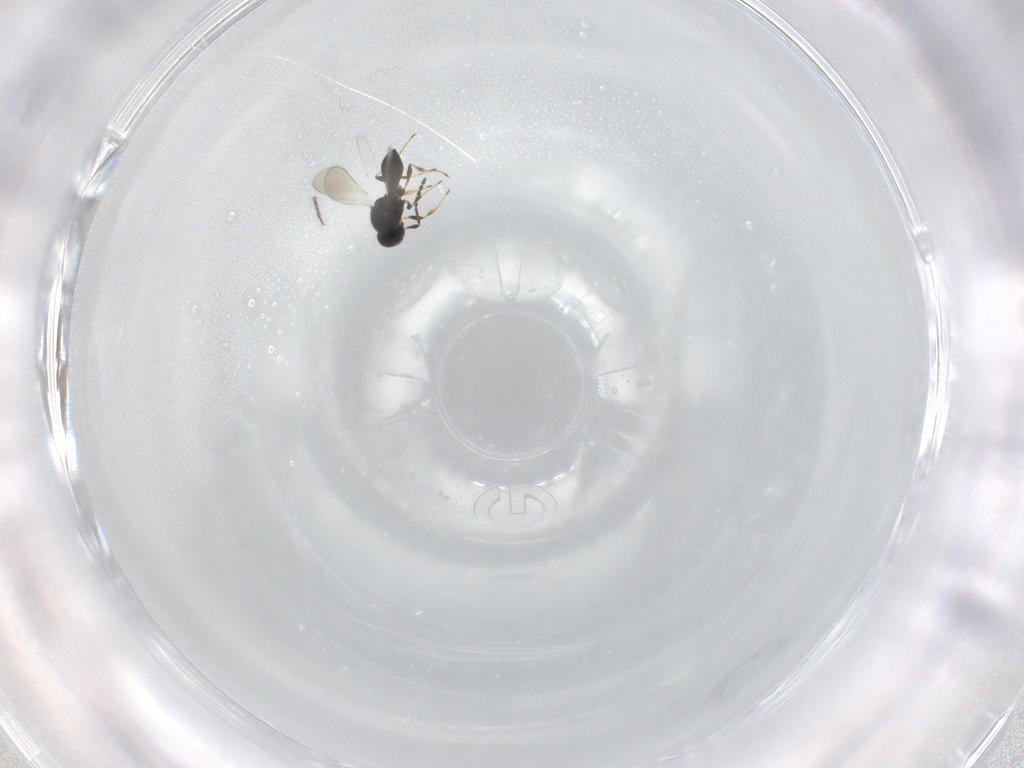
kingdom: Animalia
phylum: Arthropoda
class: Insecta
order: Hymenoptera
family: Platygastridae
